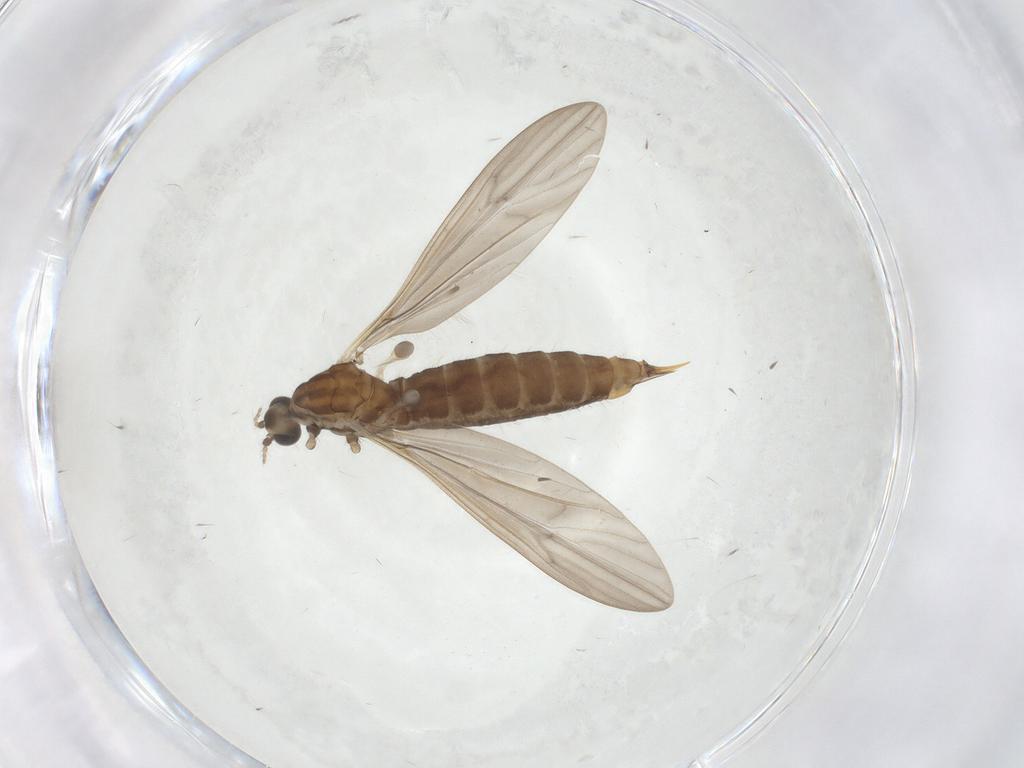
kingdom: Animalia
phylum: Arthropoda
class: Insecta
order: Diptera
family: Limoniidae
